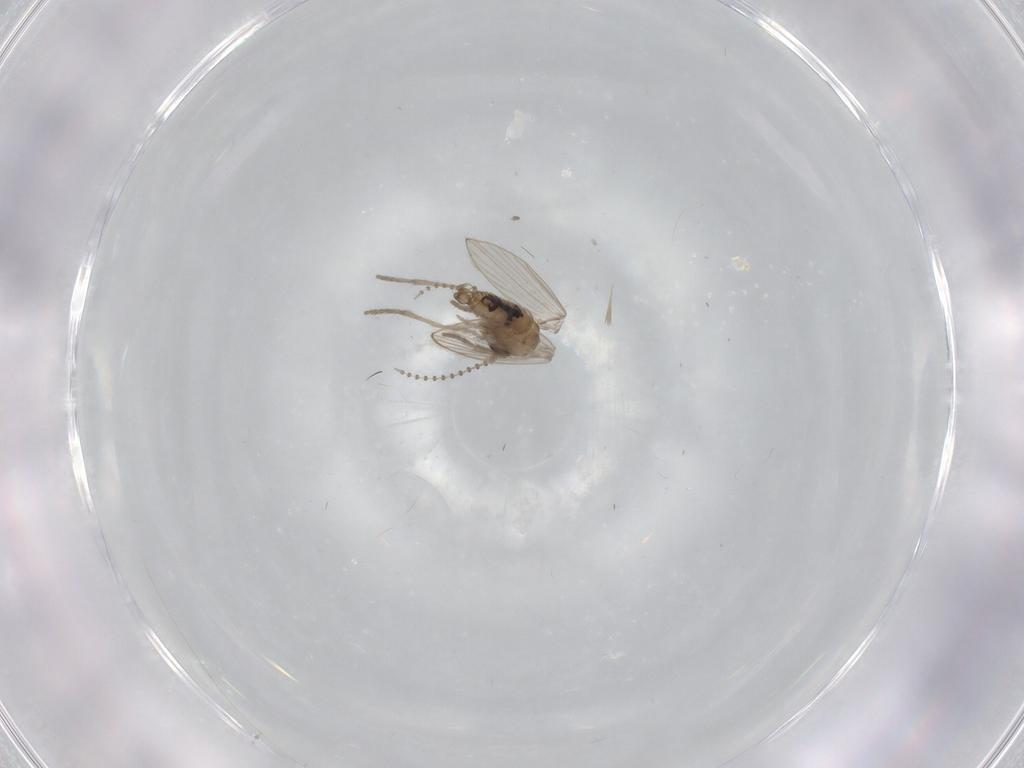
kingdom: Animalia
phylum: Arthropoda
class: Insecta
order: Diptera
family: Psychodidae
